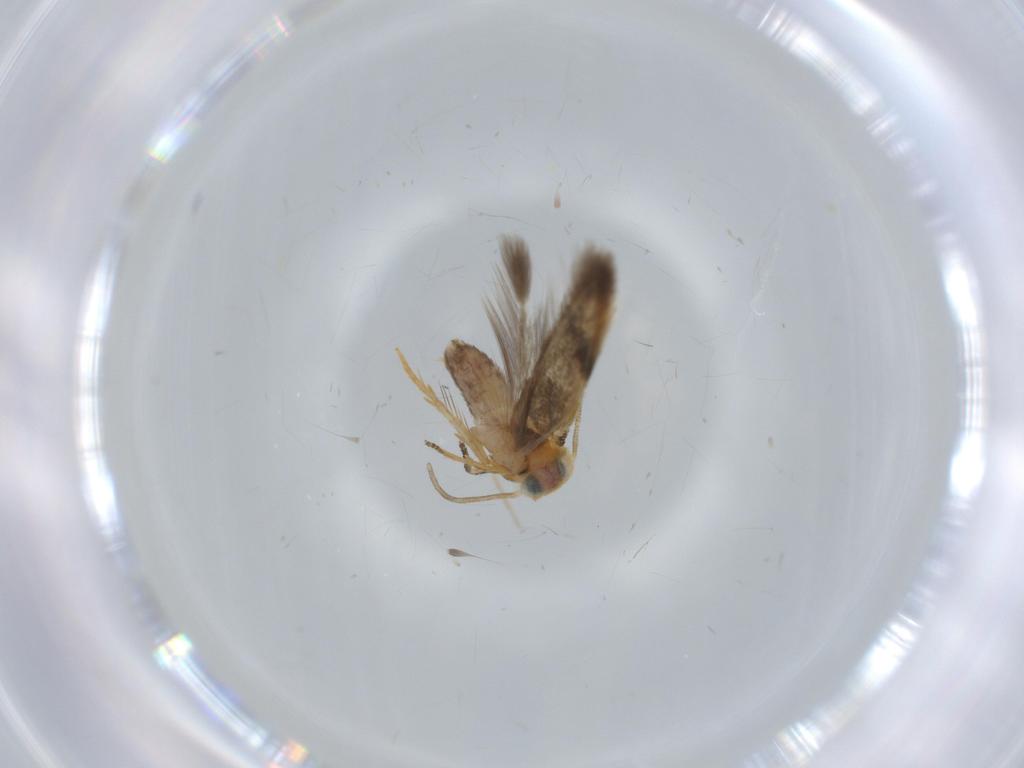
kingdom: Animalia
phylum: Arthropoda
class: Insecta
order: Lepidoptera
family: Nepticulidae
